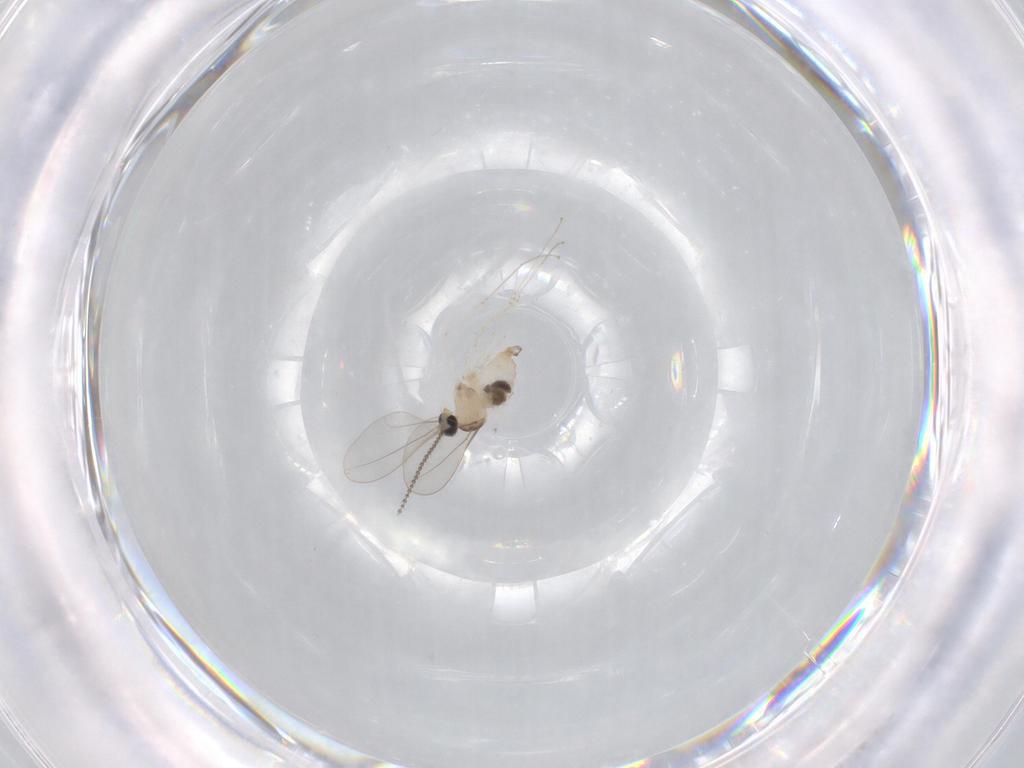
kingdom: Animalia
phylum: Arthropoda
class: Insecta
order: Diptera
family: Cecidomyiidae
